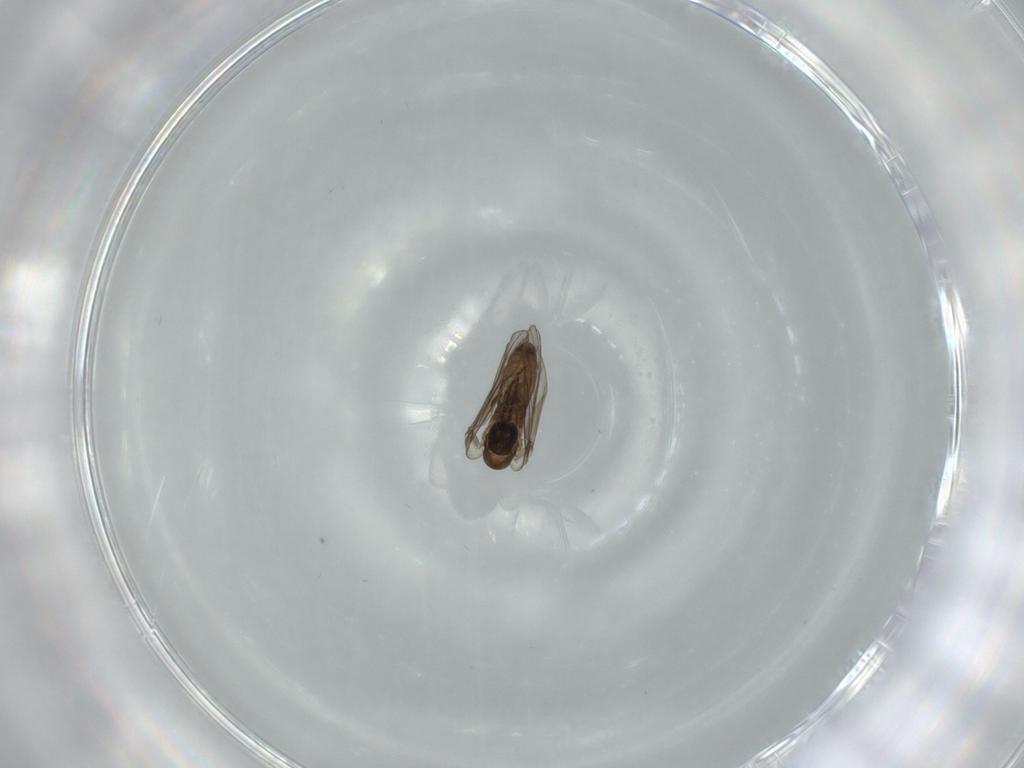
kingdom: Animalia
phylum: Arthropoda
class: Insecta
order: Diptera
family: Psychodidae
